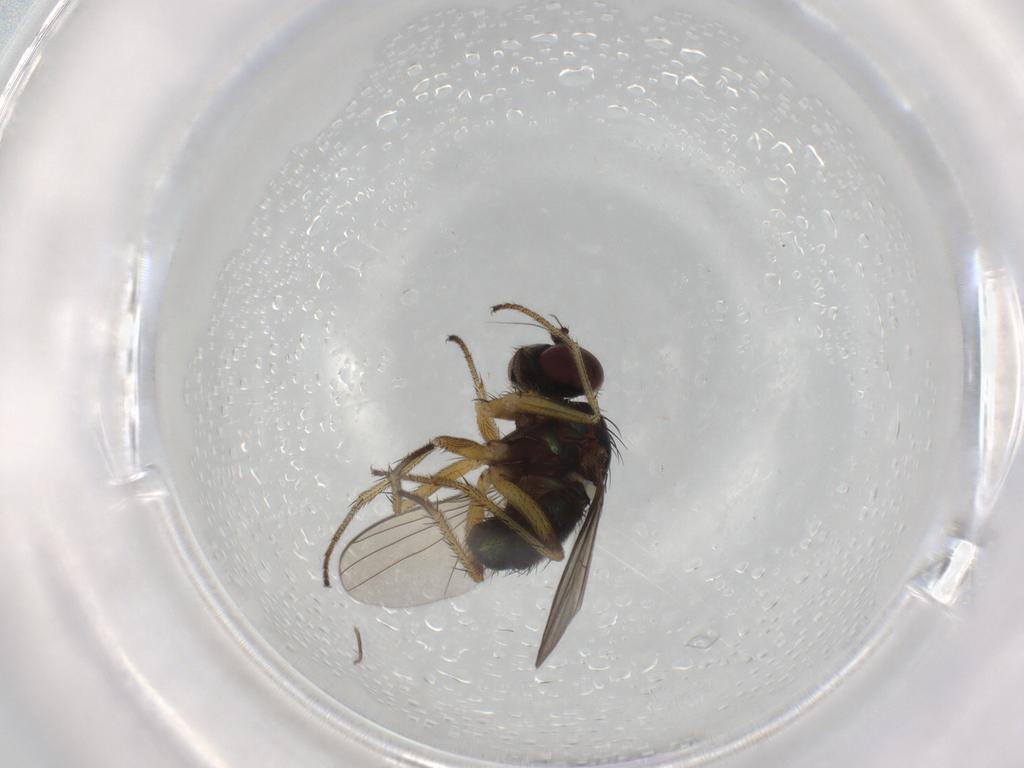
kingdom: Animalia
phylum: Arthropoda
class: Insecta
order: Diptera
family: Dolichopodidae
